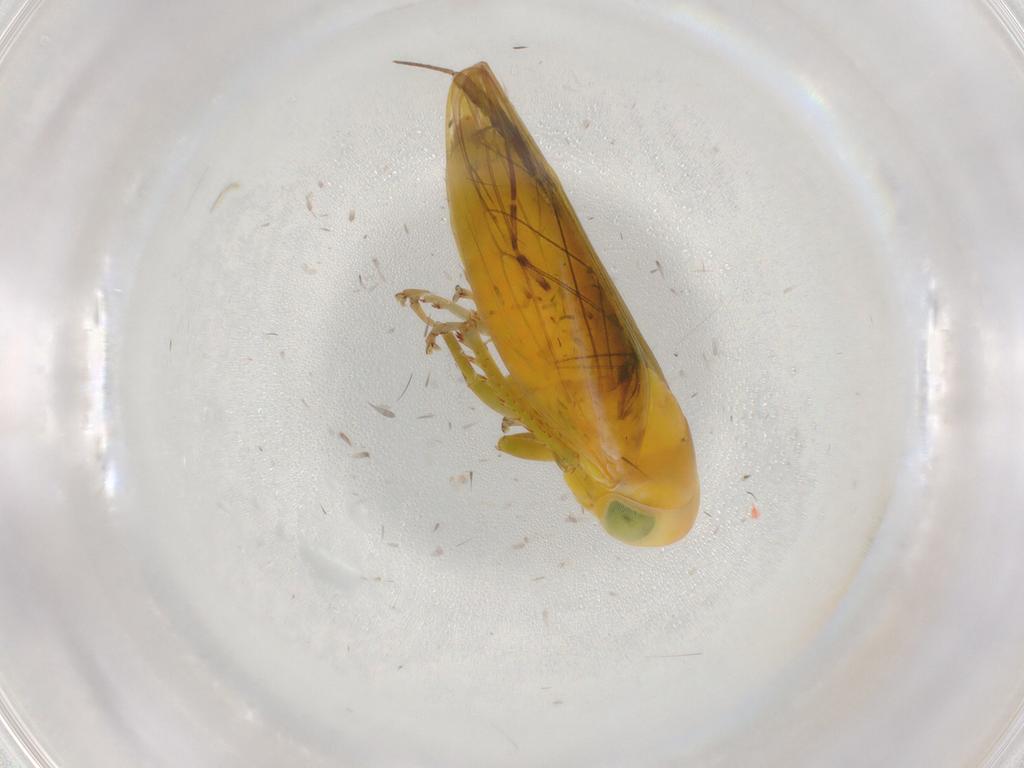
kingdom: Animalia
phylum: Arthropoda
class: Insecta
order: Hemiptera
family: Cicadellidae
